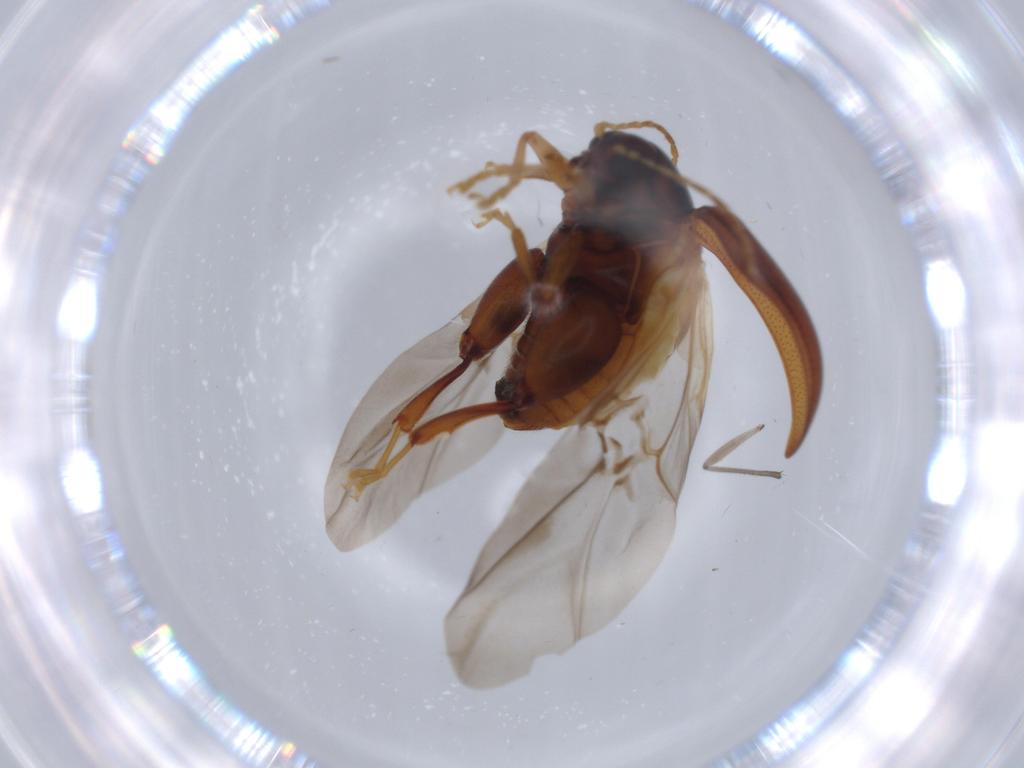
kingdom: Animalia
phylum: Arthropoda
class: Insecta
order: Coleoptera
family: Chrysomelidae
